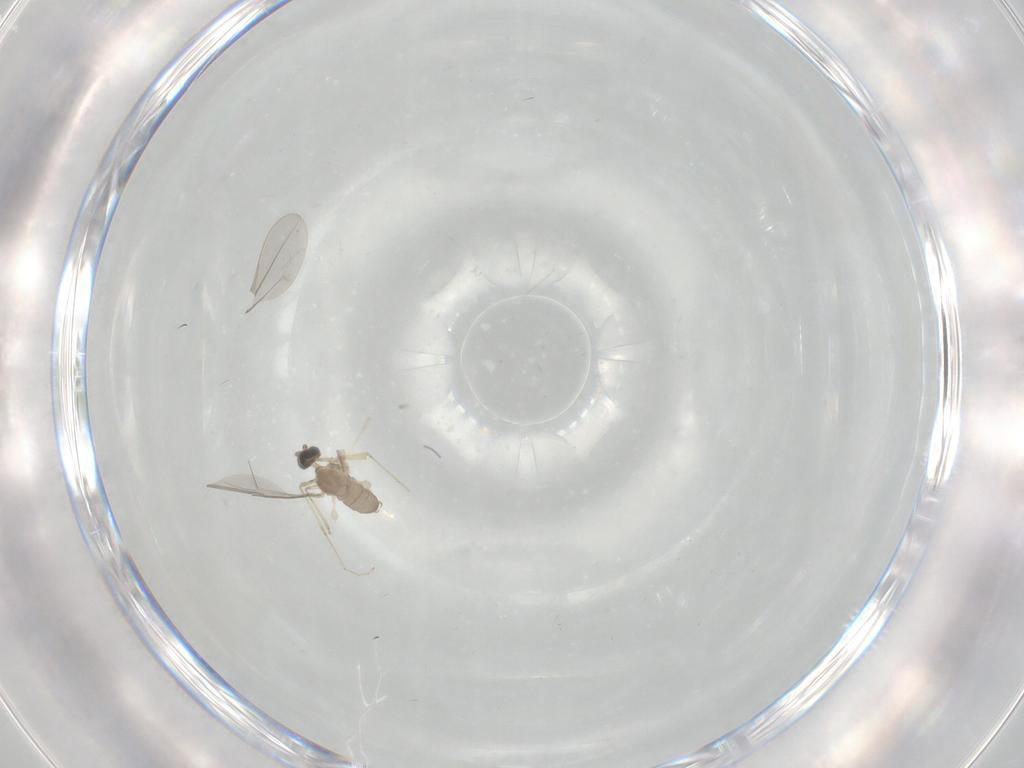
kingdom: Animalia
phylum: Arthropoda
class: Insecta
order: Diptera
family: Cecidomyiidae
